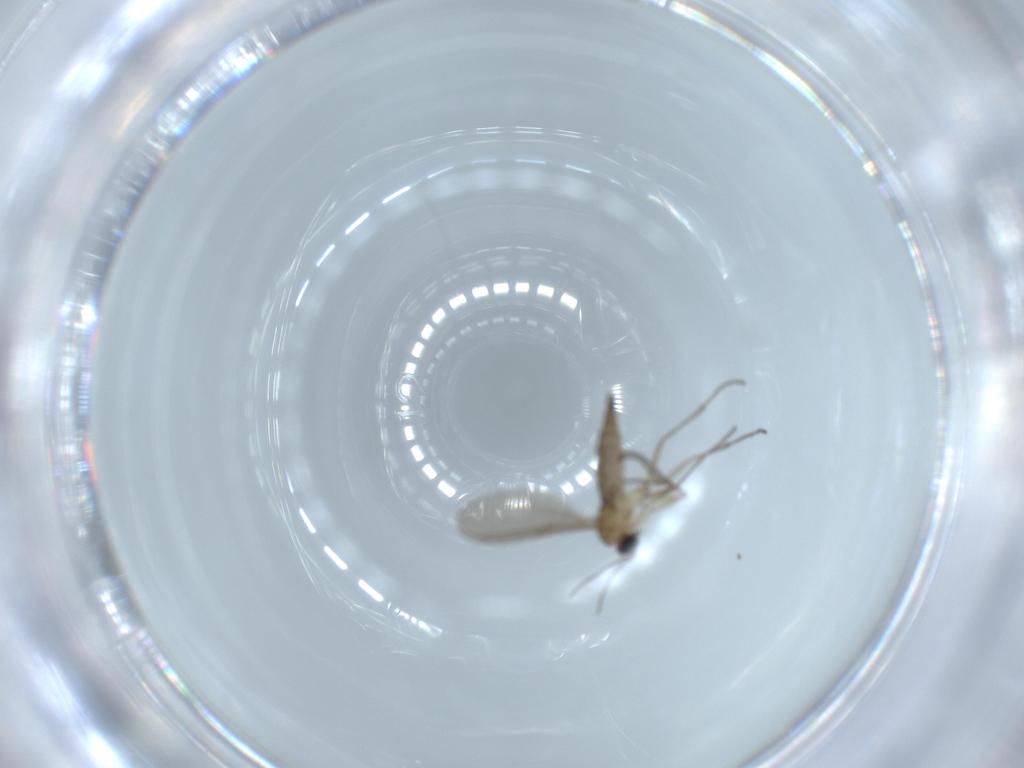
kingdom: Animalia
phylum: Arthropoda
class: Insecta
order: Diptera
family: Sciaridae
